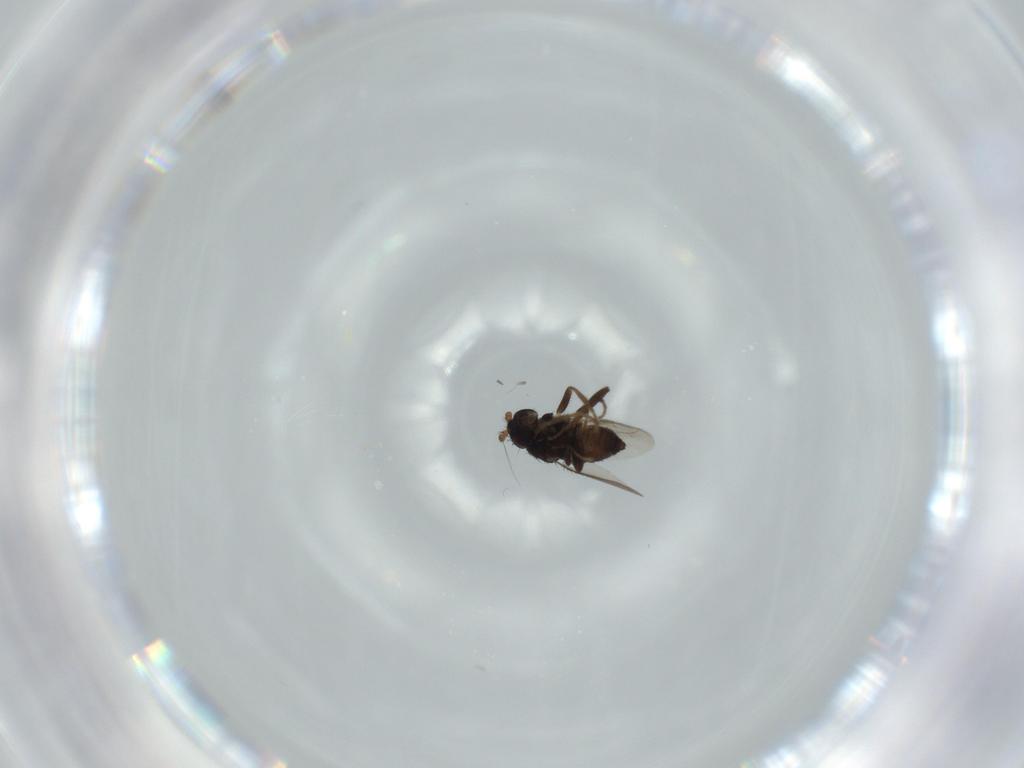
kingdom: Animalia
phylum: Arthropoda
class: Insecta
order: Diptera
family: Sphaeroceridae
